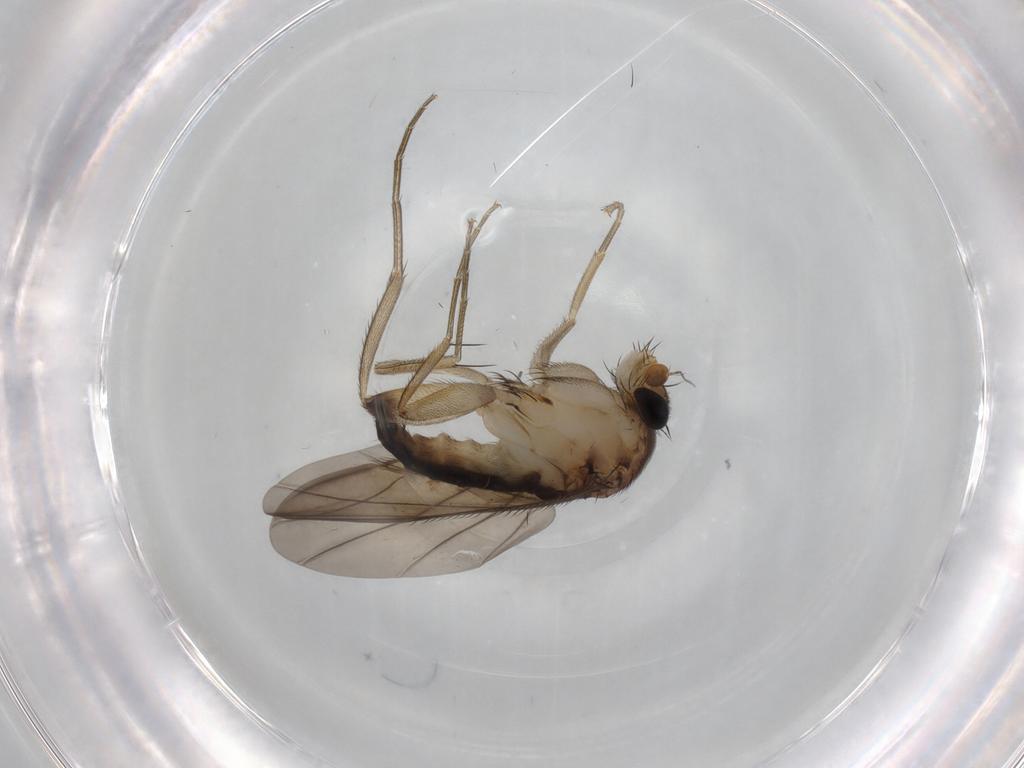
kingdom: Animalia
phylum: Arthropoda
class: Insecta
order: Diptera
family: Phoridae
